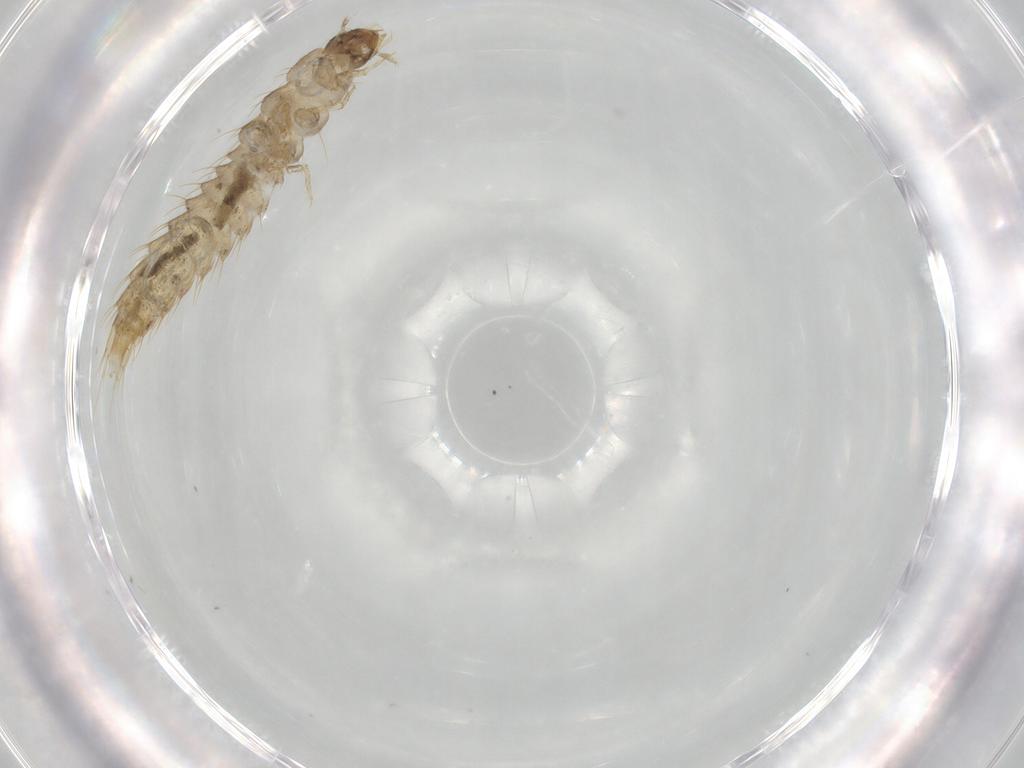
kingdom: Animalia
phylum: Arthropoda
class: Insecta
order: Coleoptera
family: Staphylinidae
